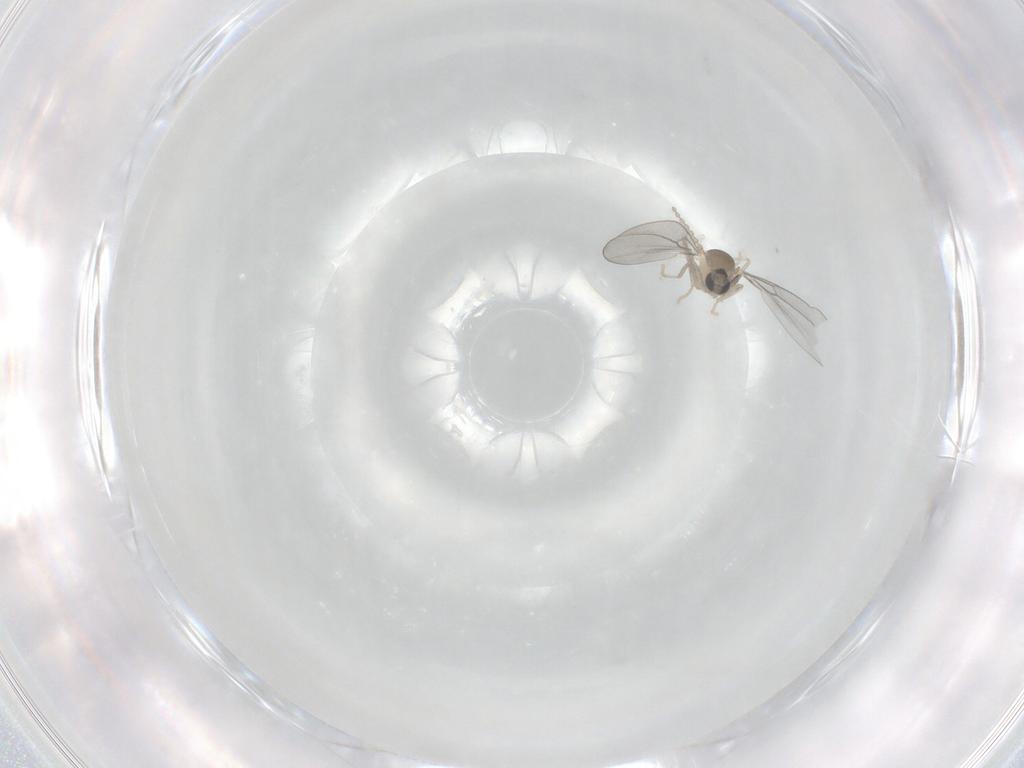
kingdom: Animalia
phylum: Arthropoda
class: Insecta
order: Diptera
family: Cecidomyiidae
